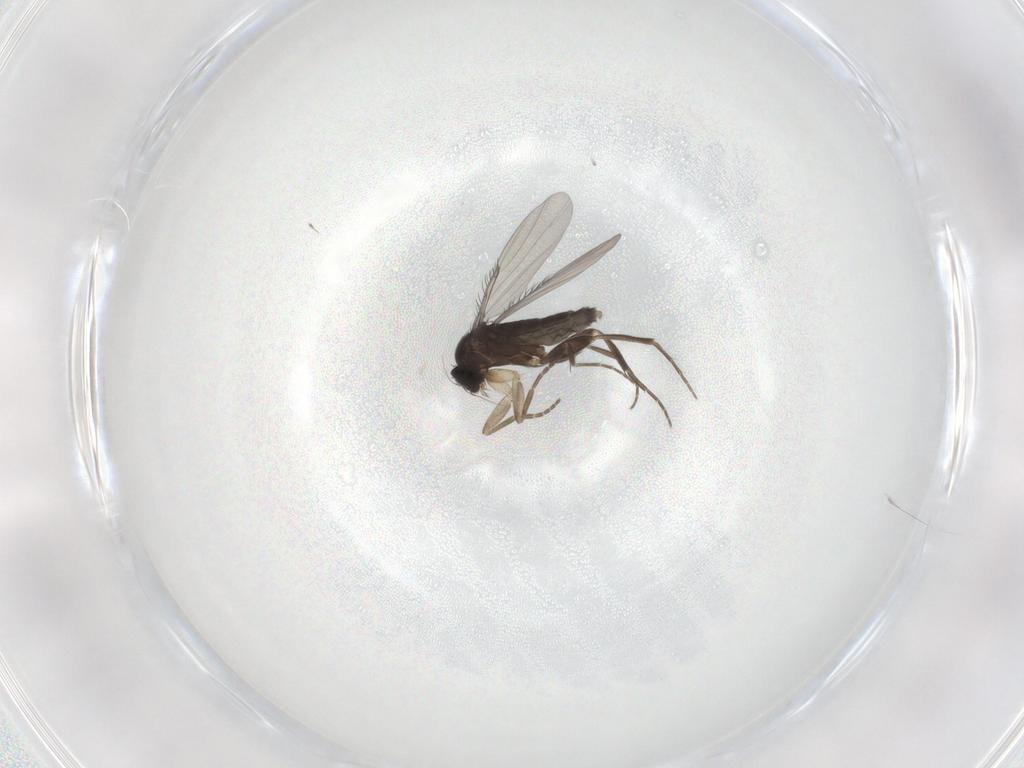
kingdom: Animalia
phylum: Arthropoda
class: Insecta
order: Diptera
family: Phoridae
